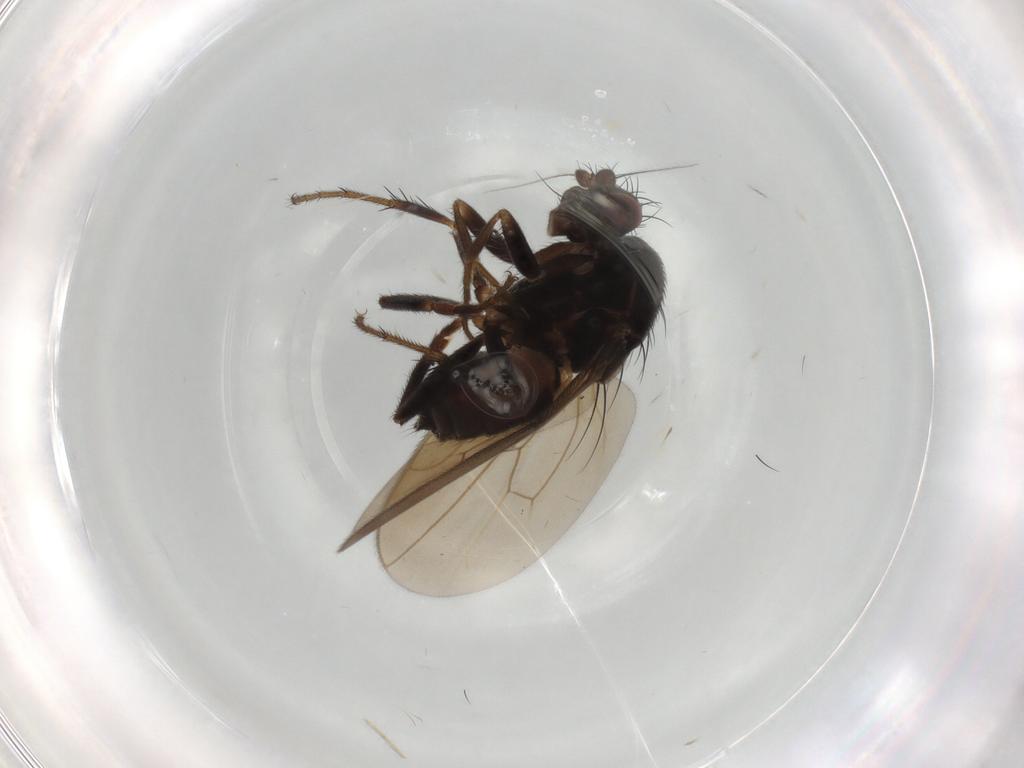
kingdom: Animalia
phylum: Arthropoda
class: Insecta
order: Diptera
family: Sphaeroceridae
